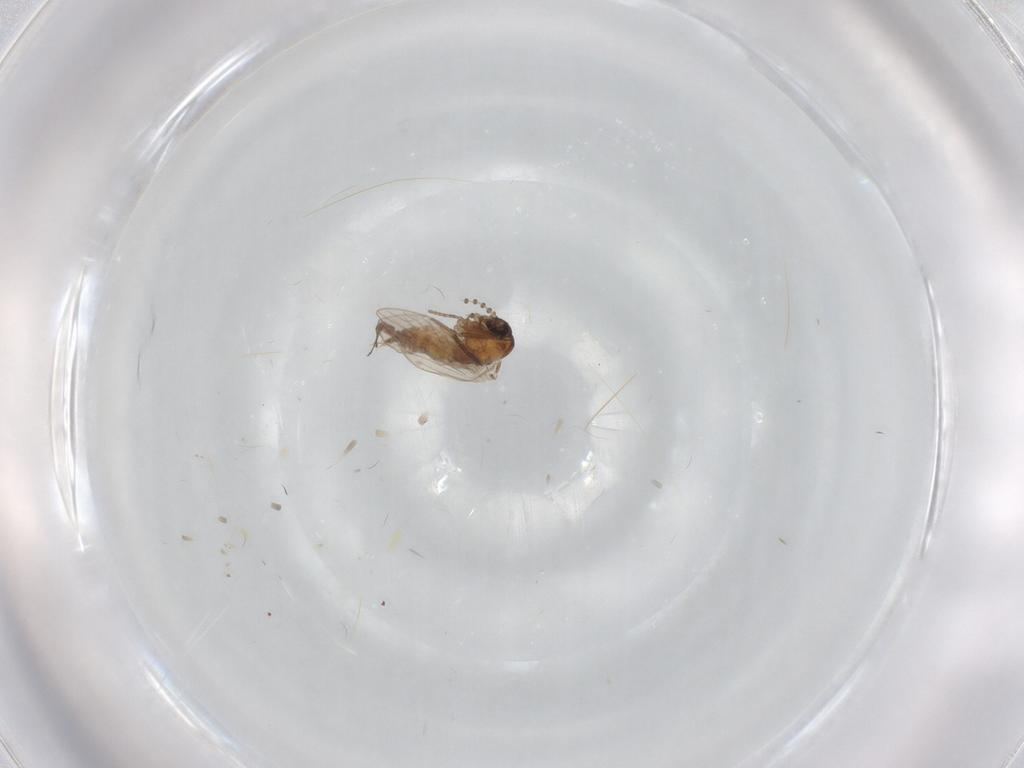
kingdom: Animalia
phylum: Arthropoda
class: Insecta
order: Diptera
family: Psychodidae
